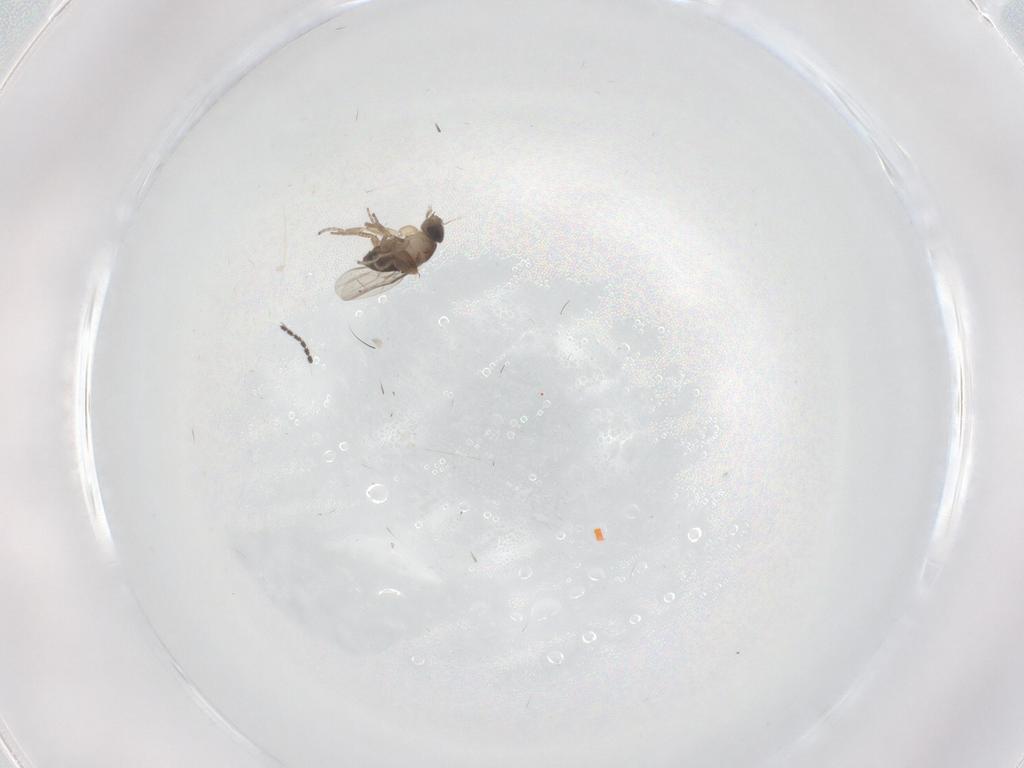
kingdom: Animalia
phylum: Arthropoda
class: Insecta
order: Diptera
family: Phoridae
